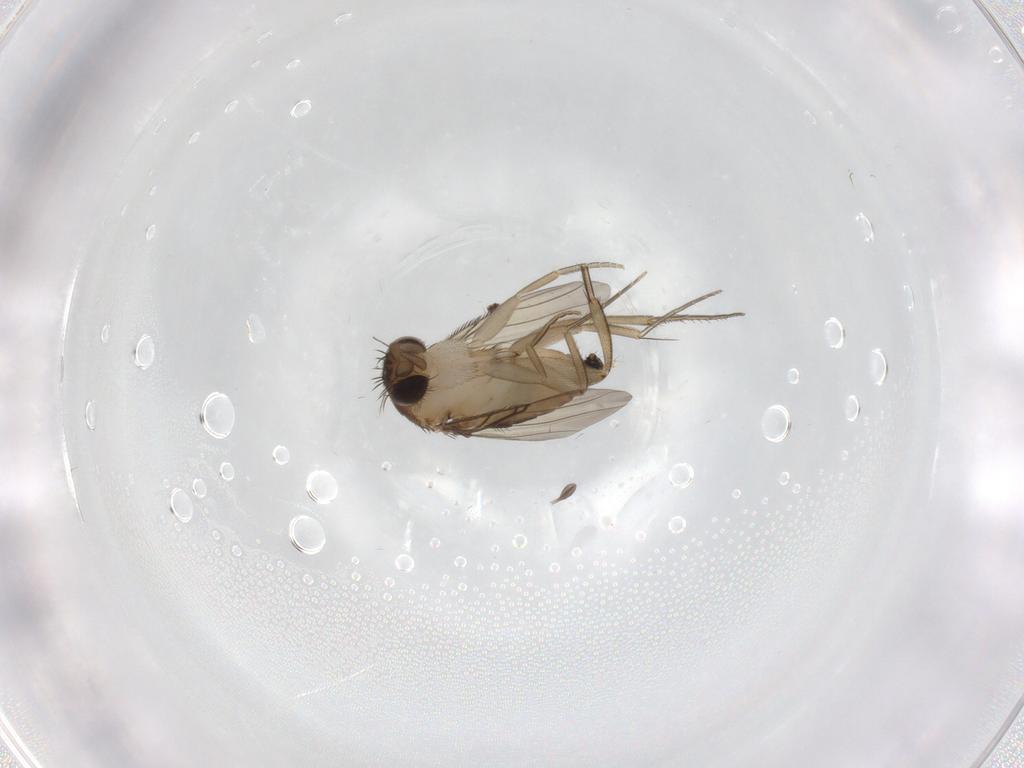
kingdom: Animalia
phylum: Arthropoda
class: Insecta
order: Diptera
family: Phoridae
